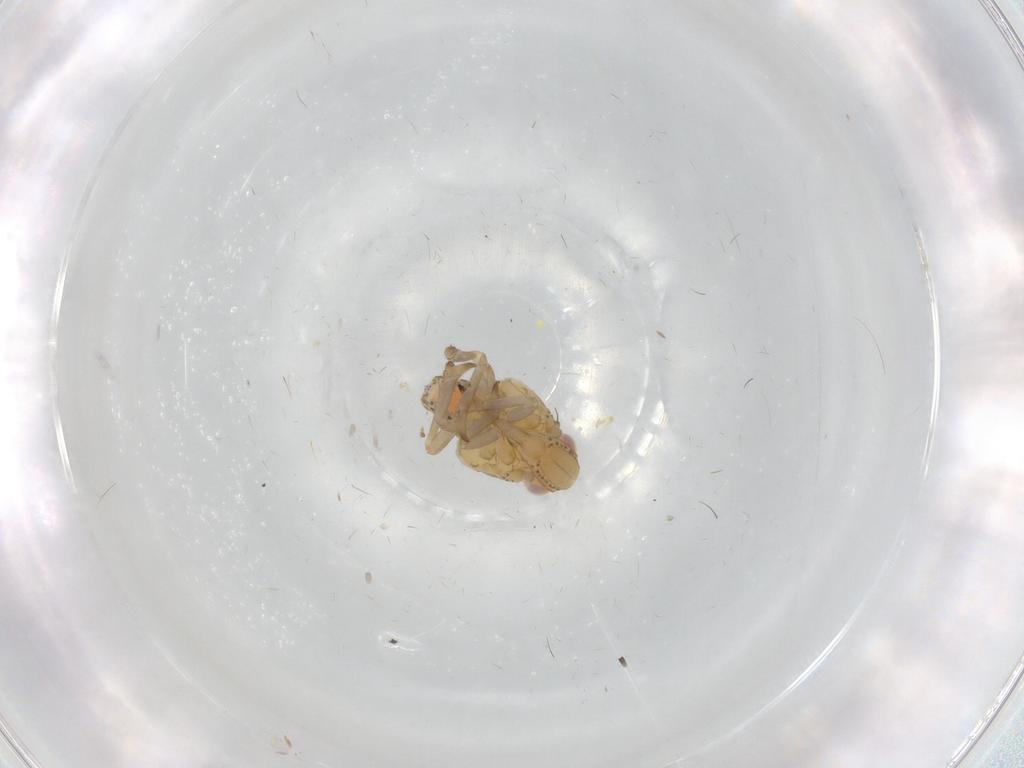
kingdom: Animalia
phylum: Arthropoda
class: Insecta
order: Hemiptera
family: Tropiduchidae
